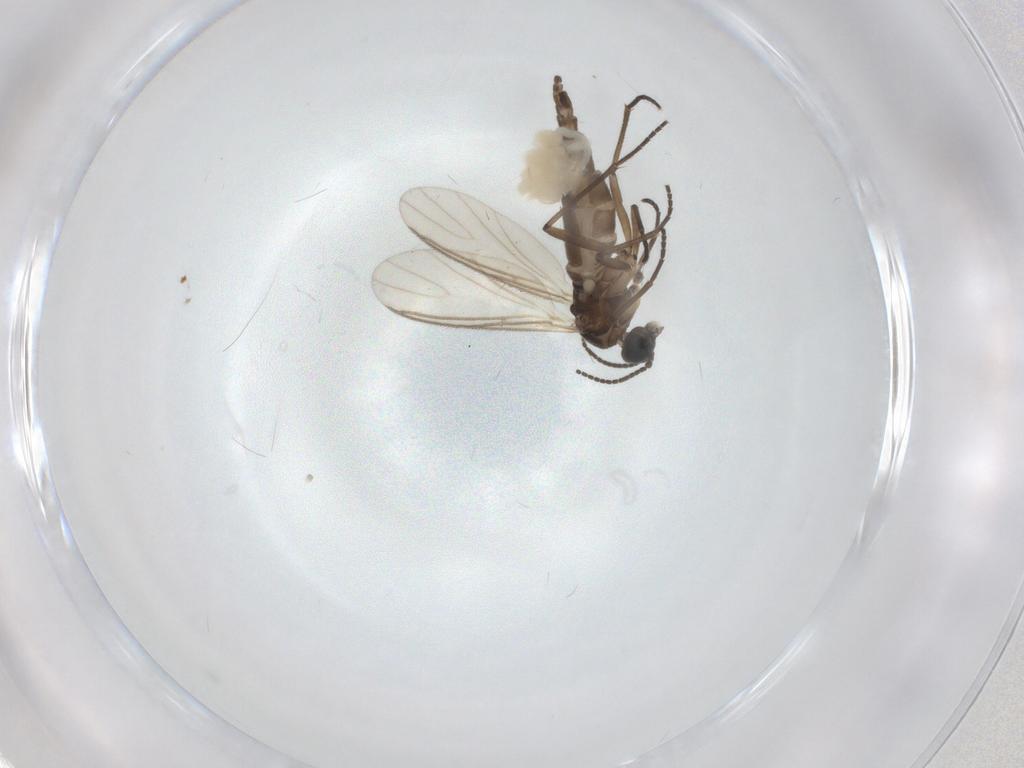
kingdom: Animalia
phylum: Arthropoda
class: Insecta
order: Diptera
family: Sciaridae
